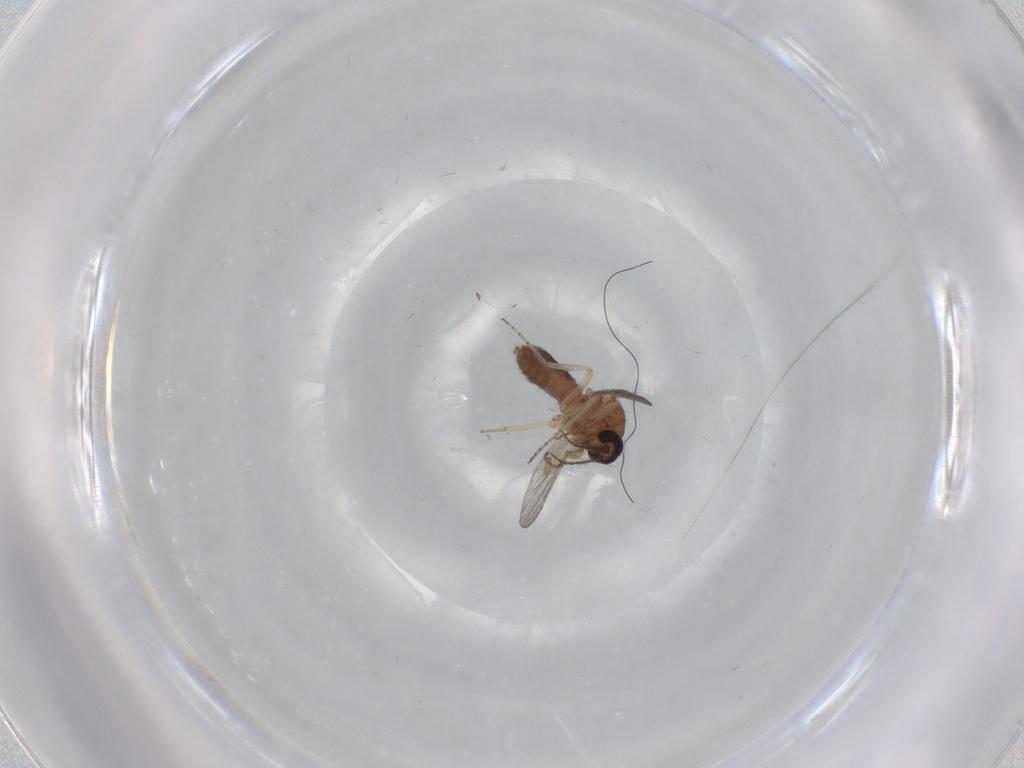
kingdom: Animalia
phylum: Arthropoda
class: Insecta
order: Diptera
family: Ceratopogonidae
